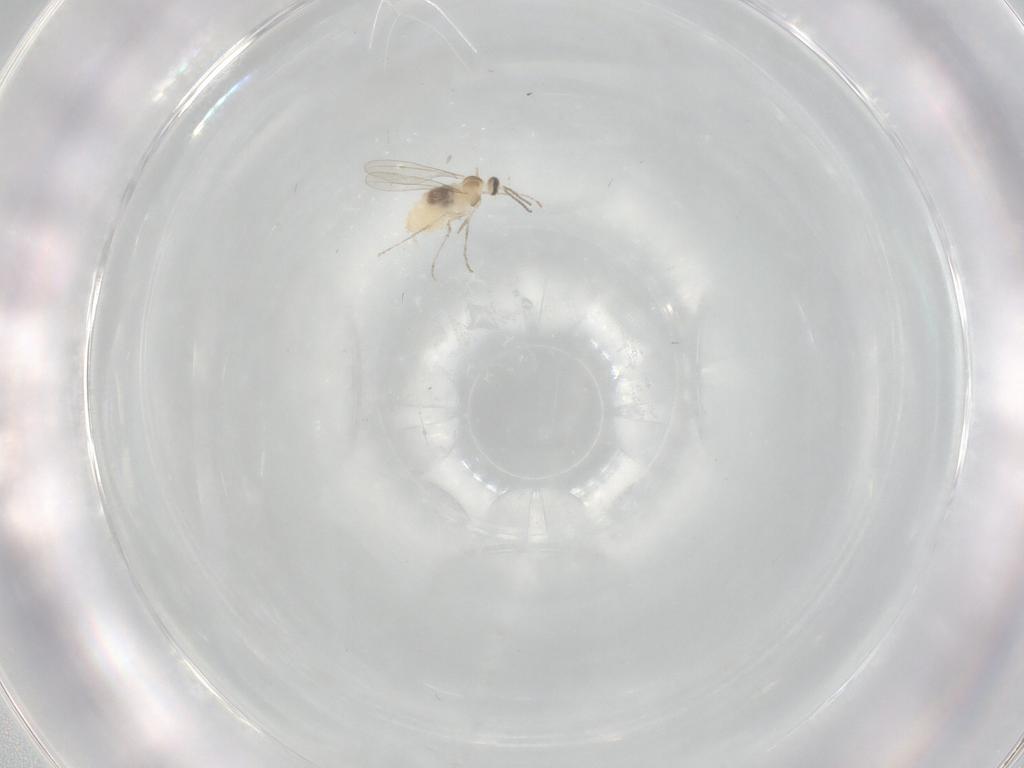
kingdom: Animalia
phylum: Arthropoda
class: Insecta
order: Diptera
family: Cecidomyiidae
